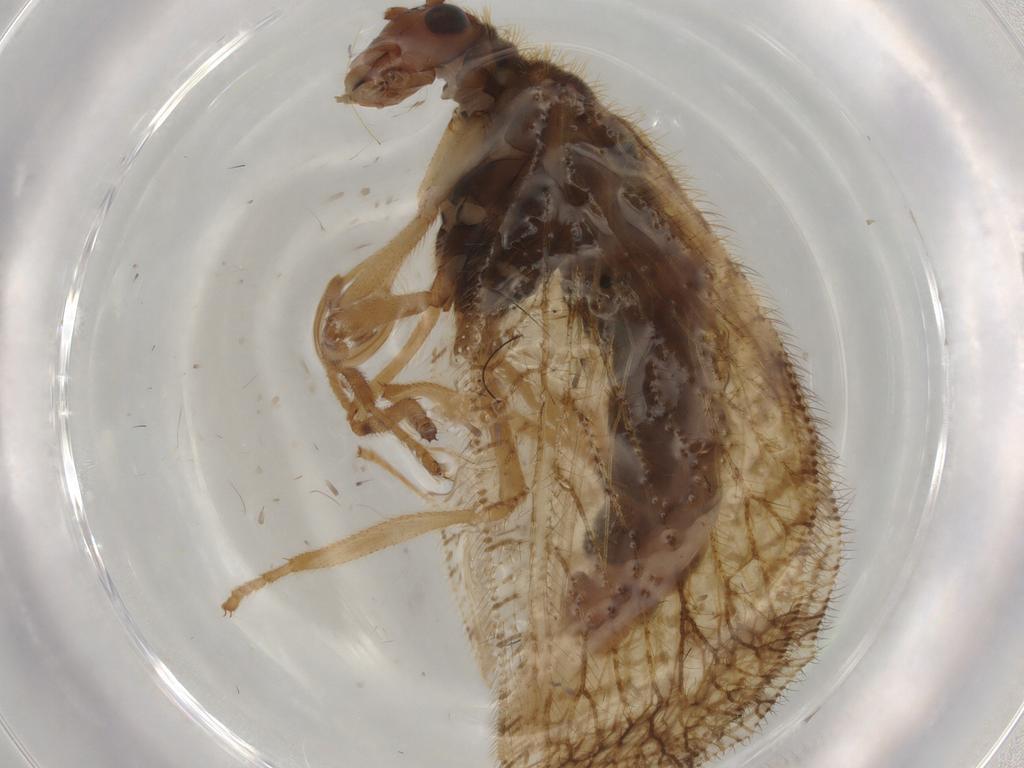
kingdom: Animalia
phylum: Arthropoda
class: Insecta
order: Neuroptera
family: Hemerobiidae
